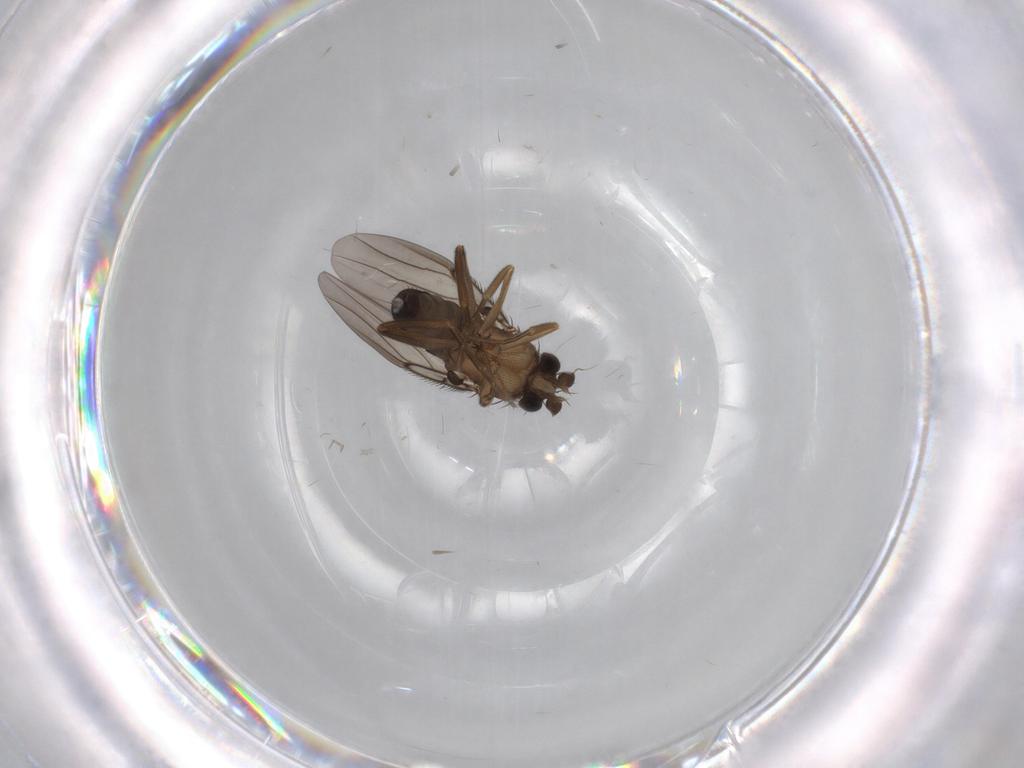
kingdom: Animalia
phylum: Arthropoda
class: Insecta
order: Diptera
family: Phoridae
